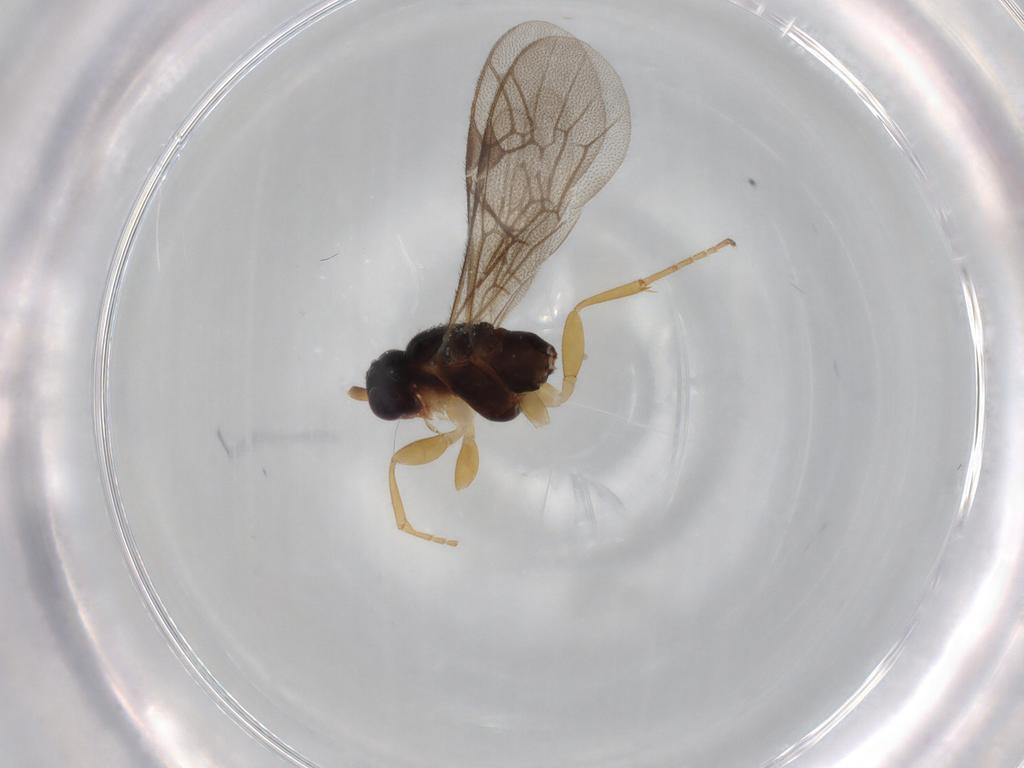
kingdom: Animalia
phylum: Arthropoda
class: Insecta
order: Hymenoptera
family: Ichneumonidae
